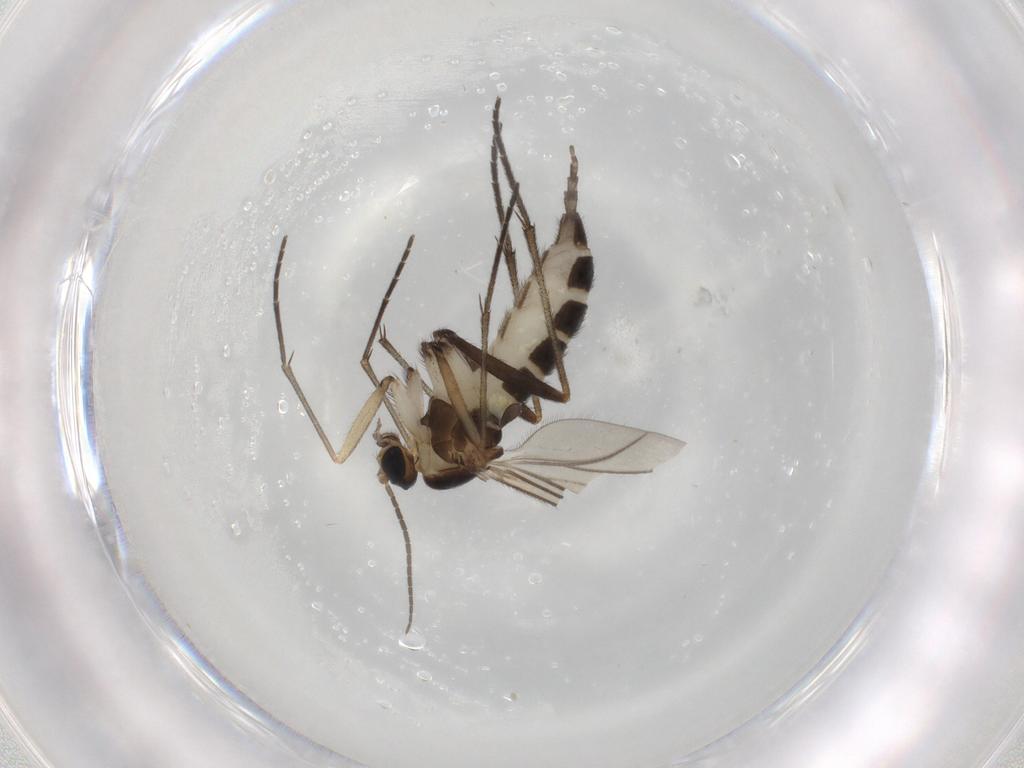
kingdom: Animalia
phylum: Arthropoda
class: Insecta
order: Diptera
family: Sciaridae
